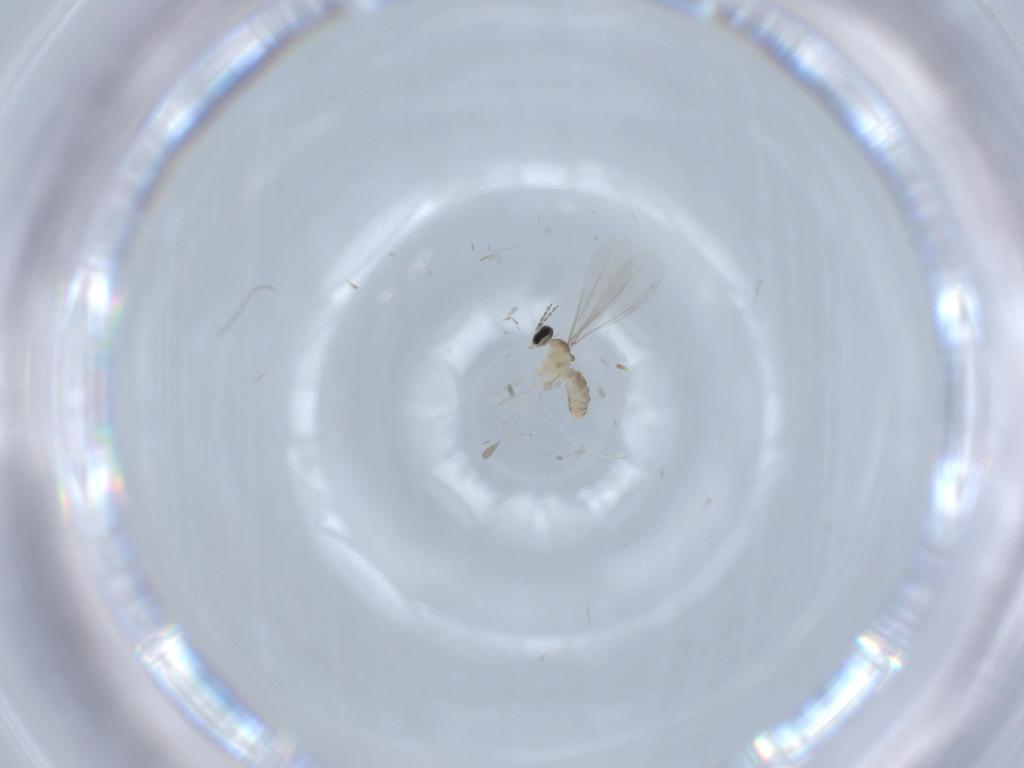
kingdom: Animalia
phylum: Arthropoda
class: Insecta
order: Diptera
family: Cecidomyiidae
